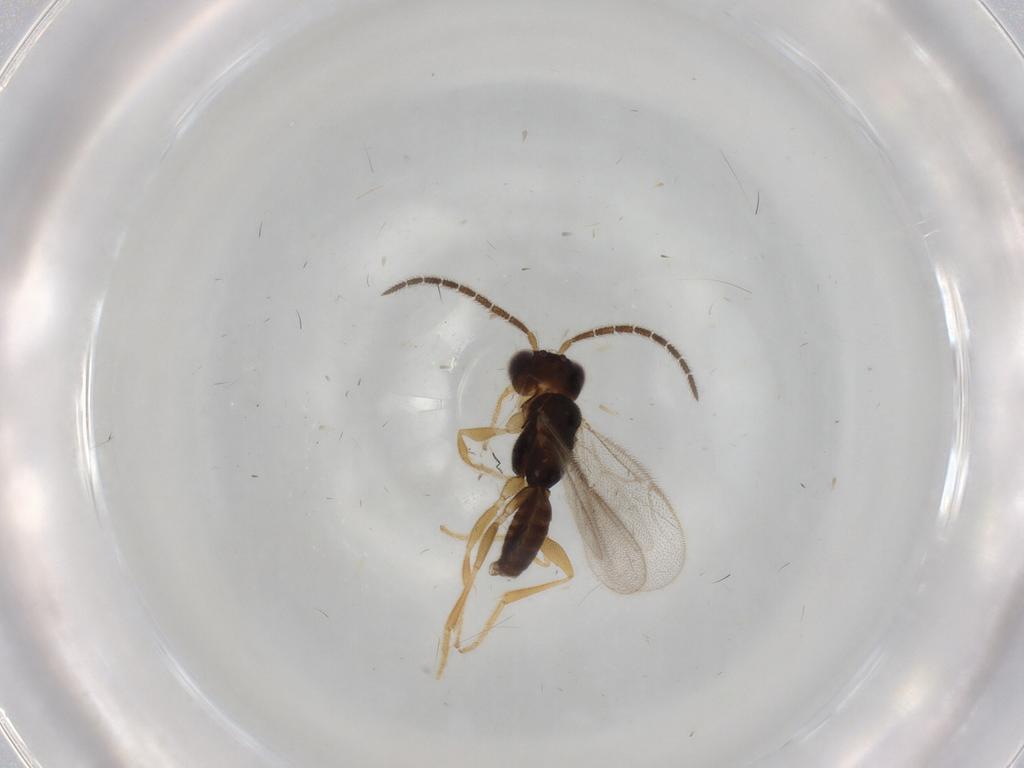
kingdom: Animalia
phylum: Arthropoda
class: Insecta
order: Hymenoptera
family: Dryinidae
